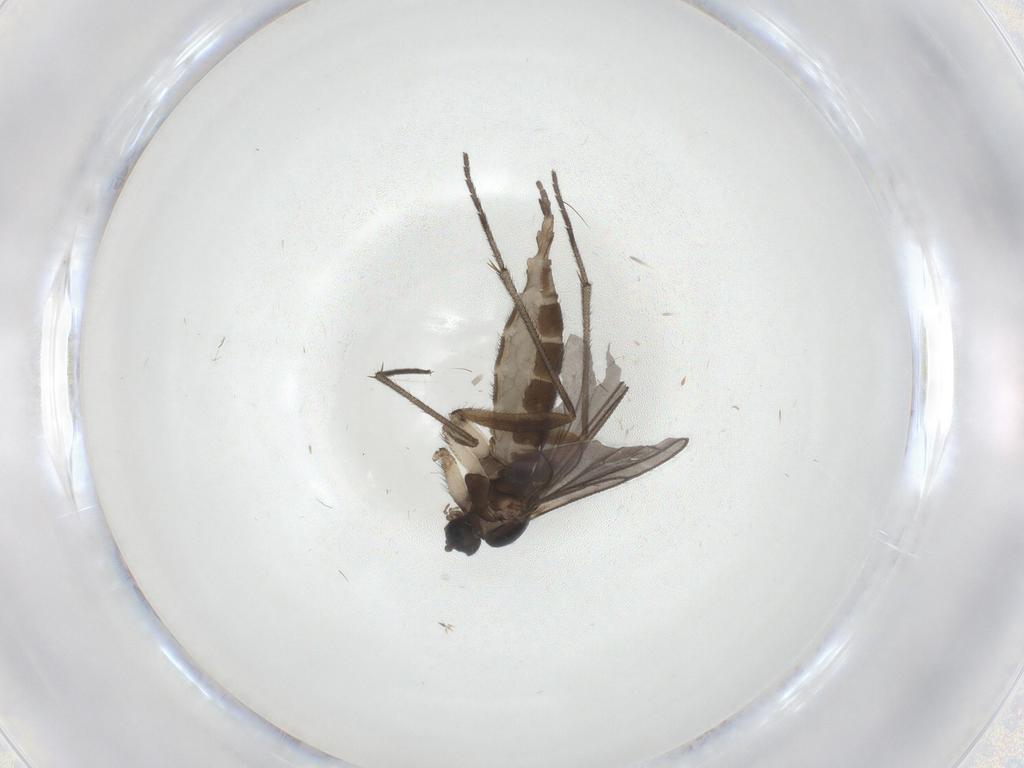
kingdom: Animalia
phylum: Arthropoda
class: Insecta
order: Diptera
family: Sciaridae
